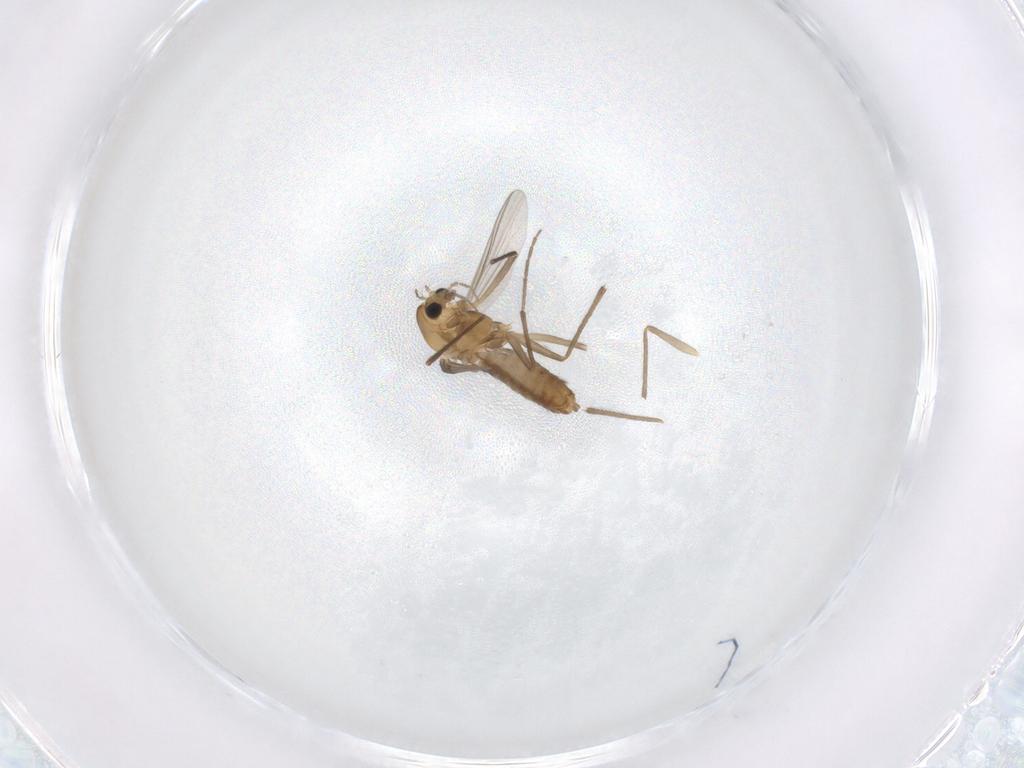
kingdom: Animalia
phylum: Arthropoda
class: Insecta
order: Diptera
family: Chironomidae
